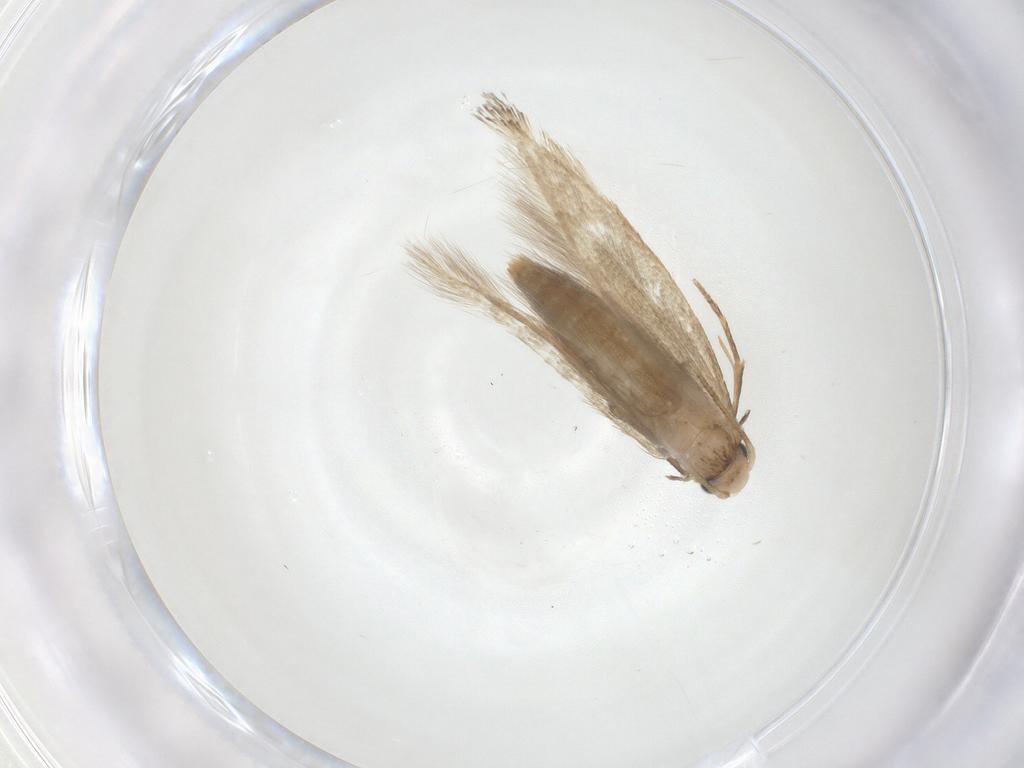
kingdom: Animalia
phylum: Arthropoda
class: Insecta
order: Lepidoptera
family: Tineidae
